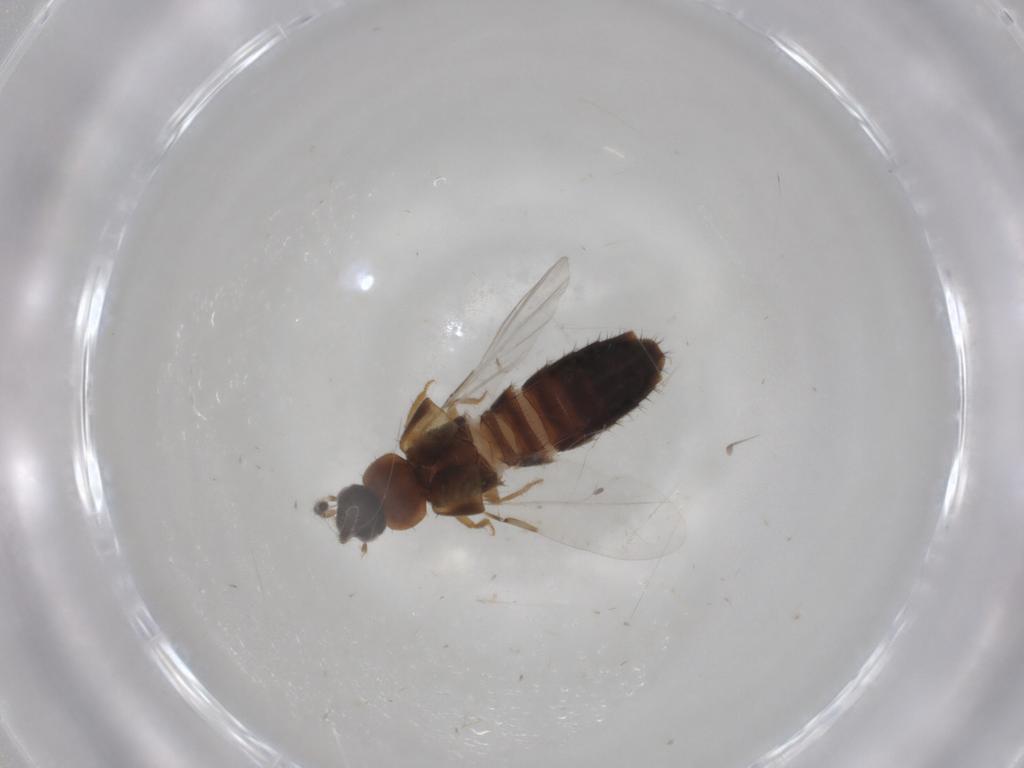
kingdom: Animalia
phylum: Arthropoda
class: Insecta
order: Coleoptera
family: Staphylinidae
